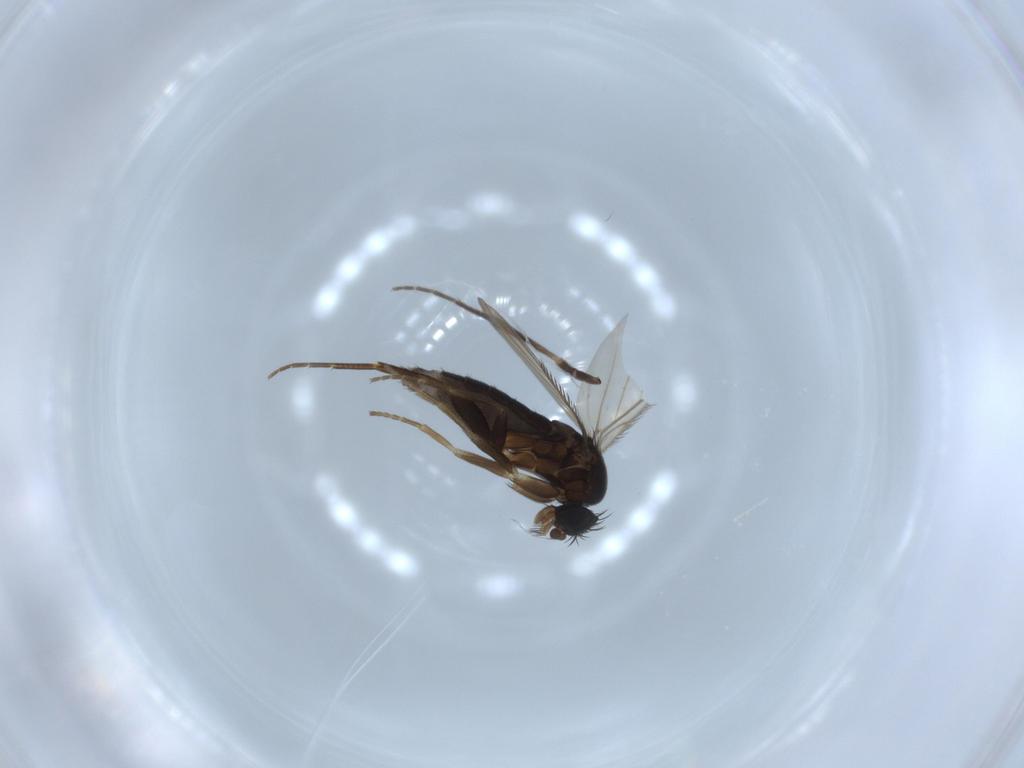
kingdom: Animalia
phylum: Arthropoda
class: Insecta
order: Diptera
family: Phoridae
